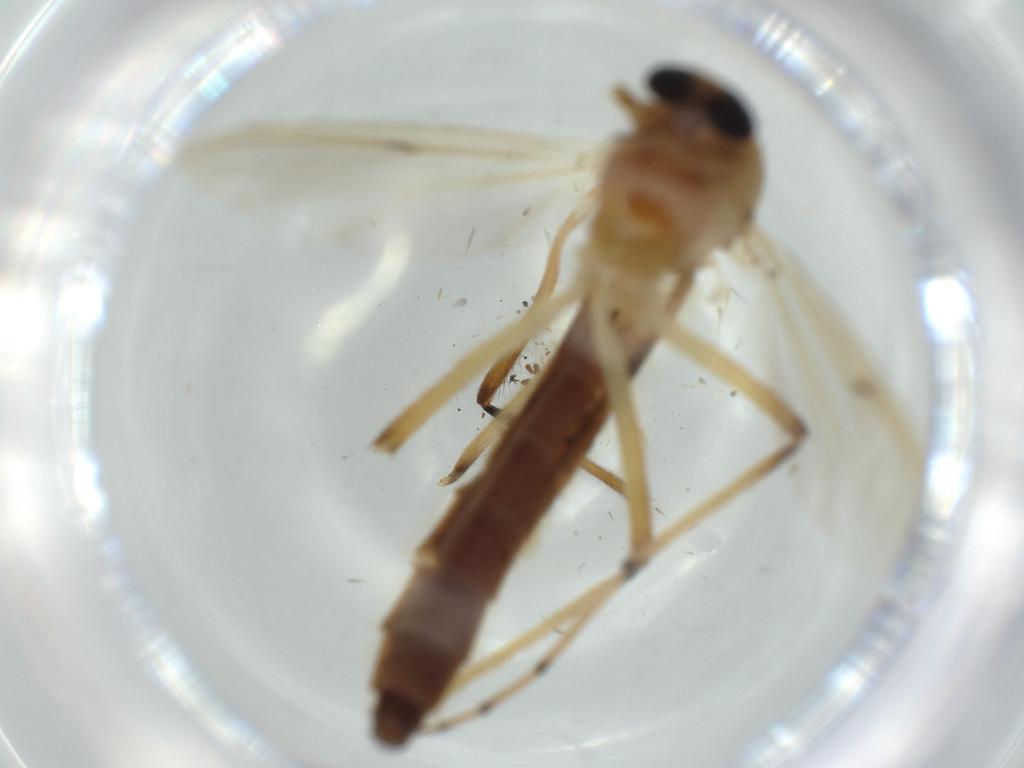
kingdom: Animalia
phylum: Arthropoda
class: Insecta
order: Diptera
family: Dolichopodidae
